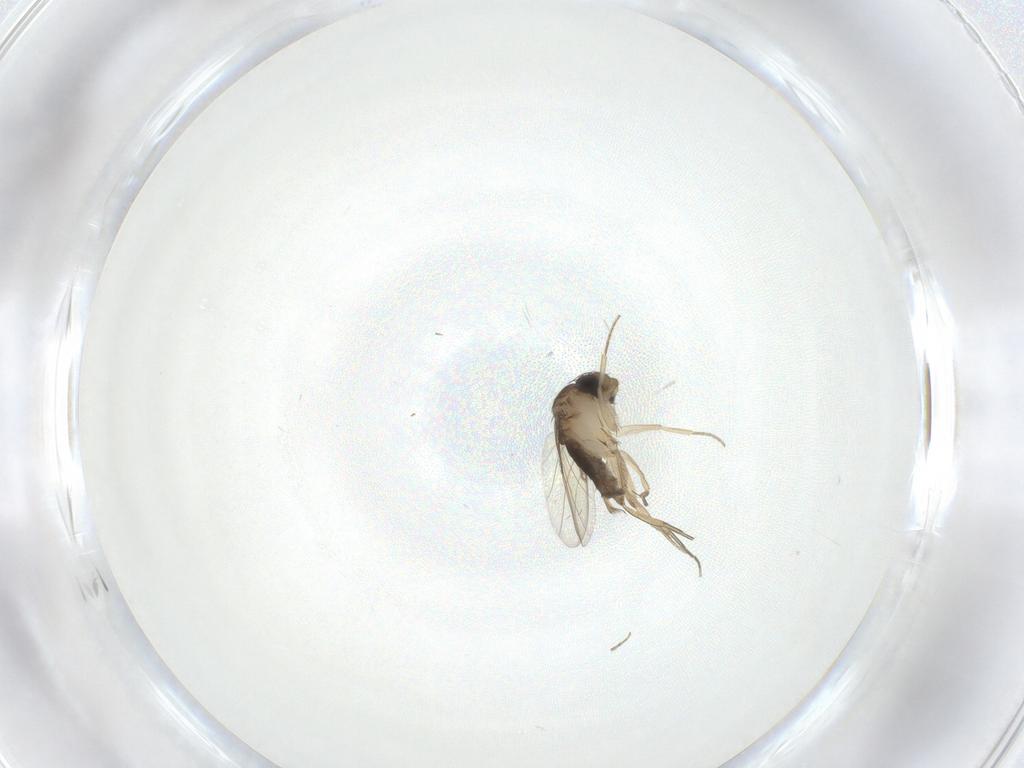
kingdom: Animalia
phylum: Arthropoda
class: Insecta
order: Diptera
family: Phoridae
